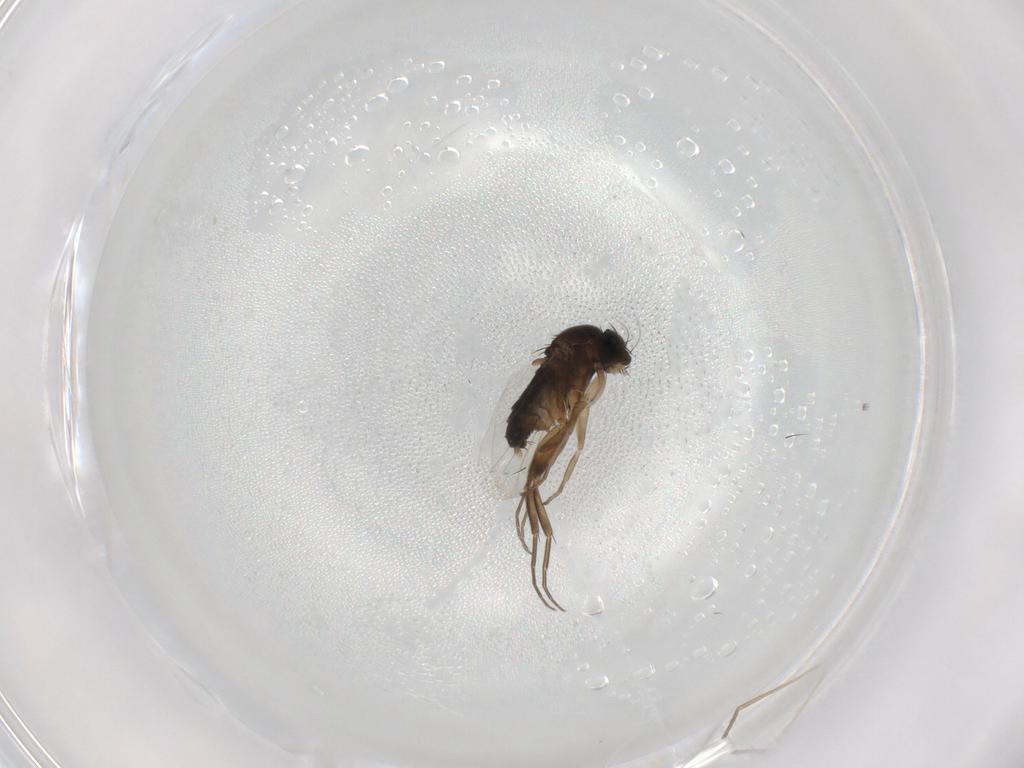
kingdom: Animalia
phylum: Arthropoda
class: Insecta
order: Diptera
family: Phoridae
